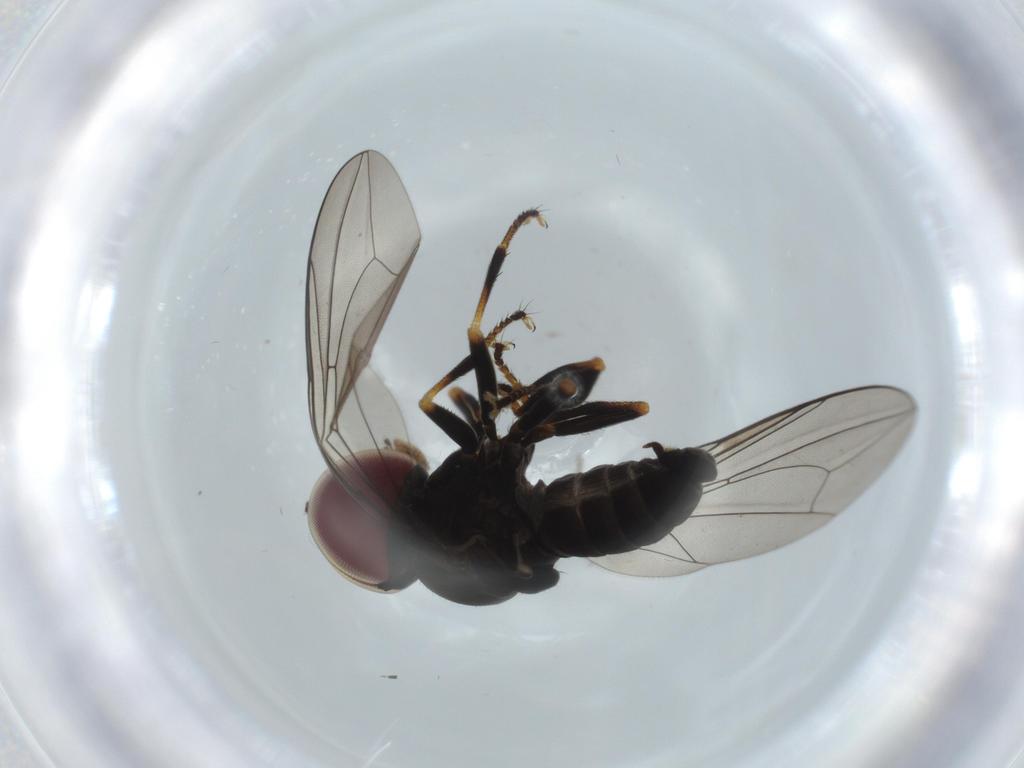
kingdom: Animalia
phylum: Arthropoda
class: Insecta
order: Diptera
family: Pipunculidae
